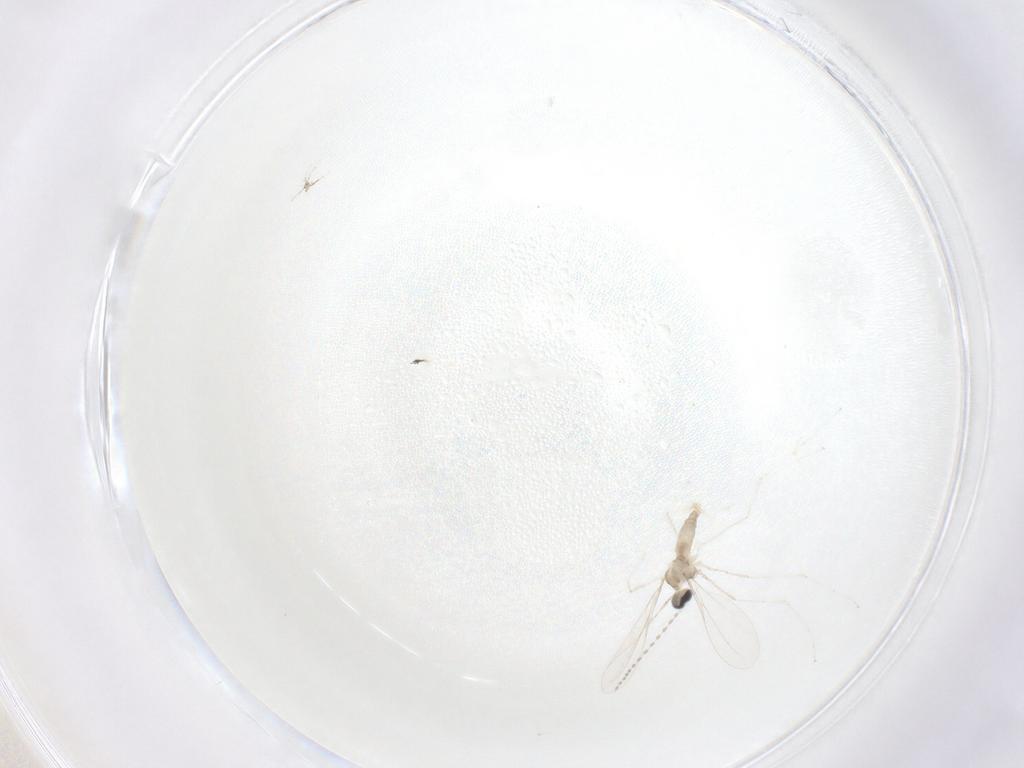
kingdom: Animalia
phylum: Arthropoda
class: Insecta
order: Diptera
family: Cecidomyiidae
